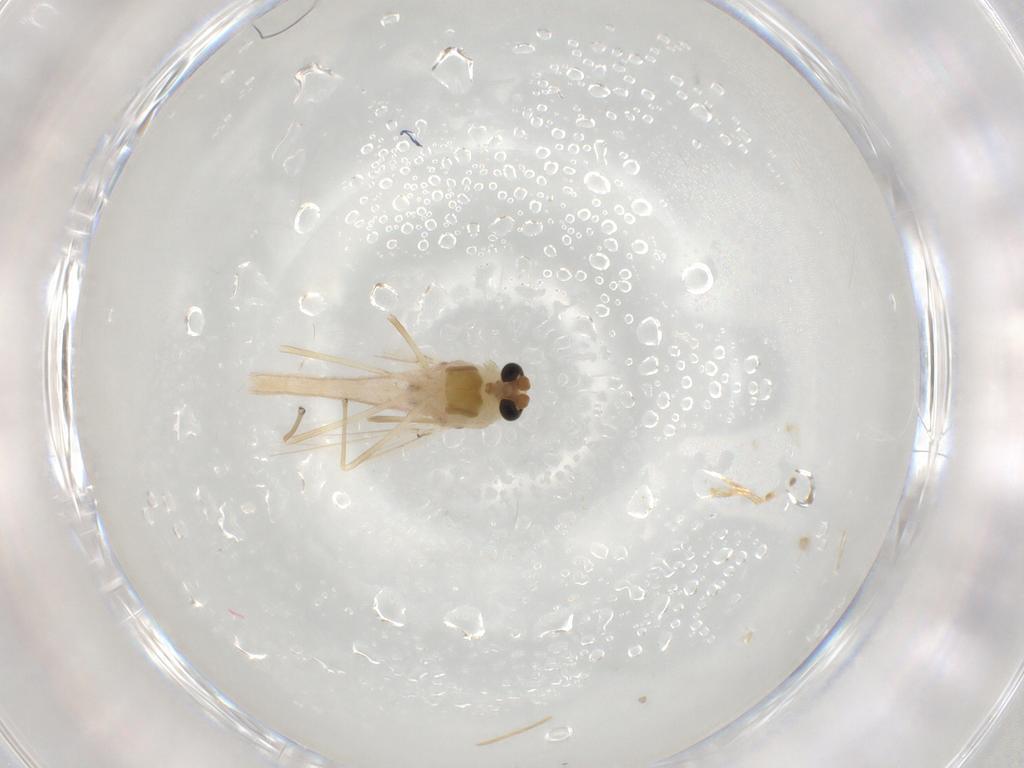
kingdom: Animalia
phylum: Arthropoda
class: Insecta
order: Diptera
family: Chironomidae
